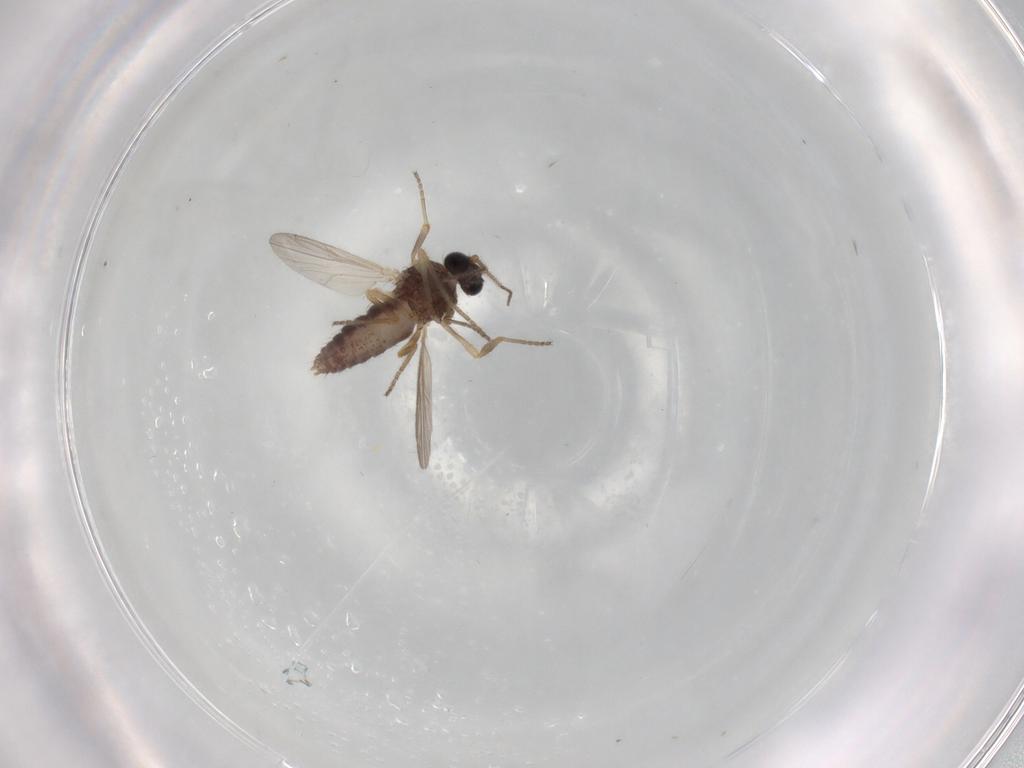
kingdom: Animalia
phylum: Arthropoda
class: Insecta
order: Diptera
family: Ceratopogonidae
